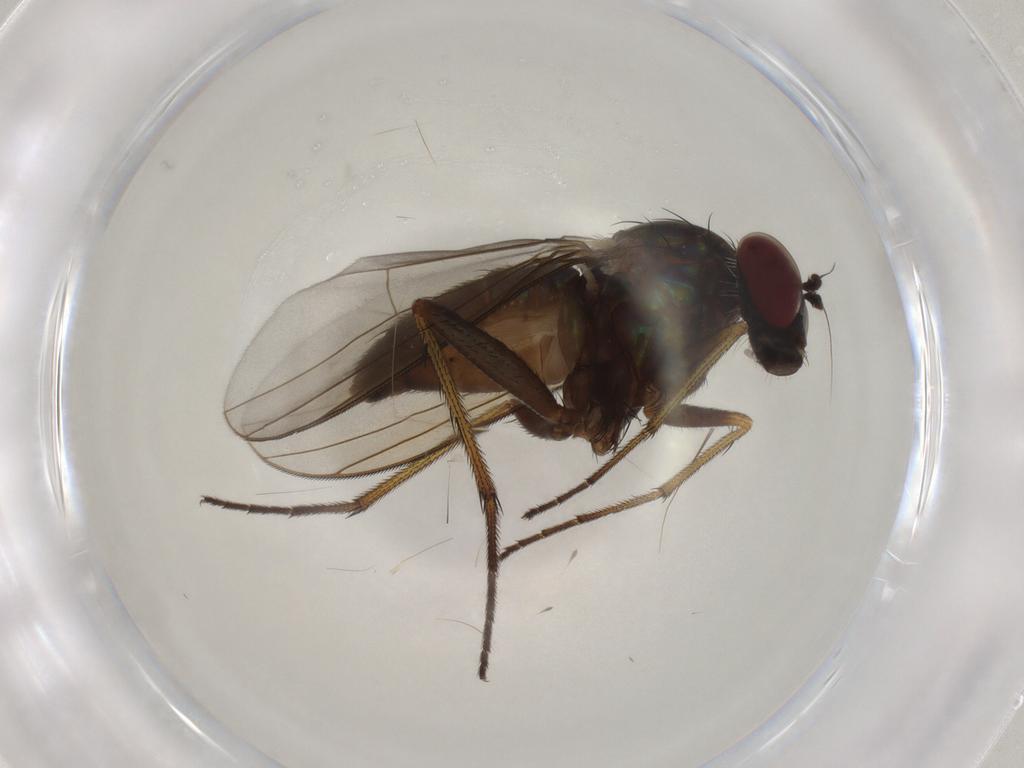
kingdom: Animalia
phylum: Arthropoda
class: Insecta
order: Diptera
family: Dolichopodidae
